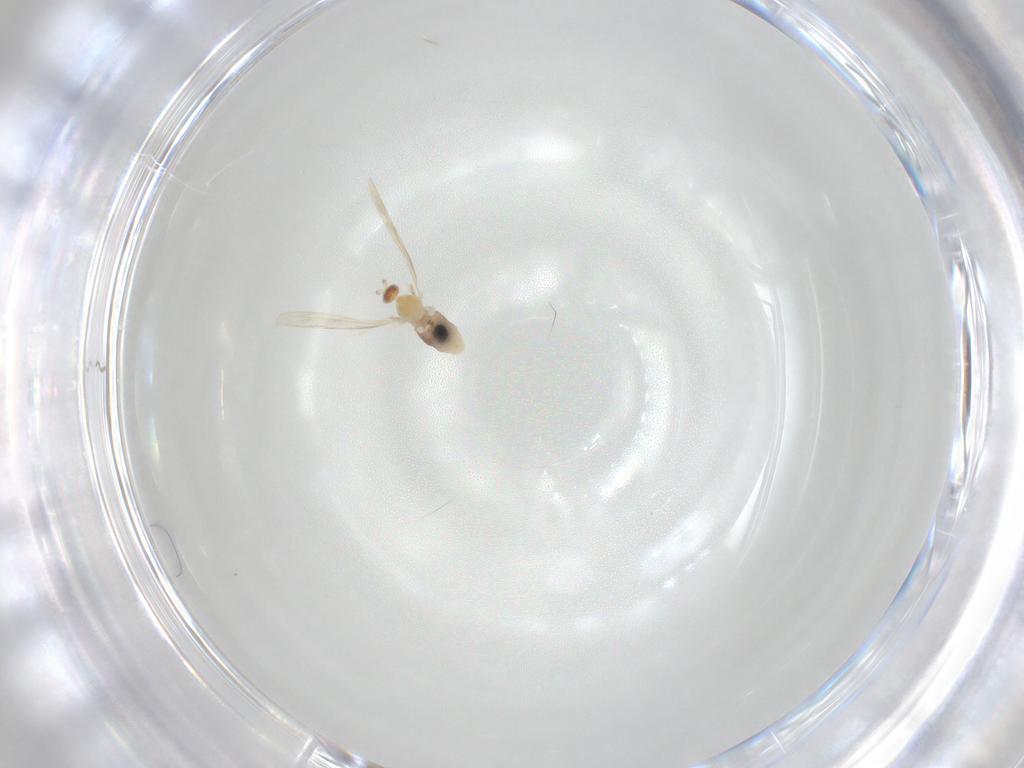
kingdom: Animalia
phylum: Arthropoda
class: Insecta
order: Diptera
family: Cecidomyiidae
